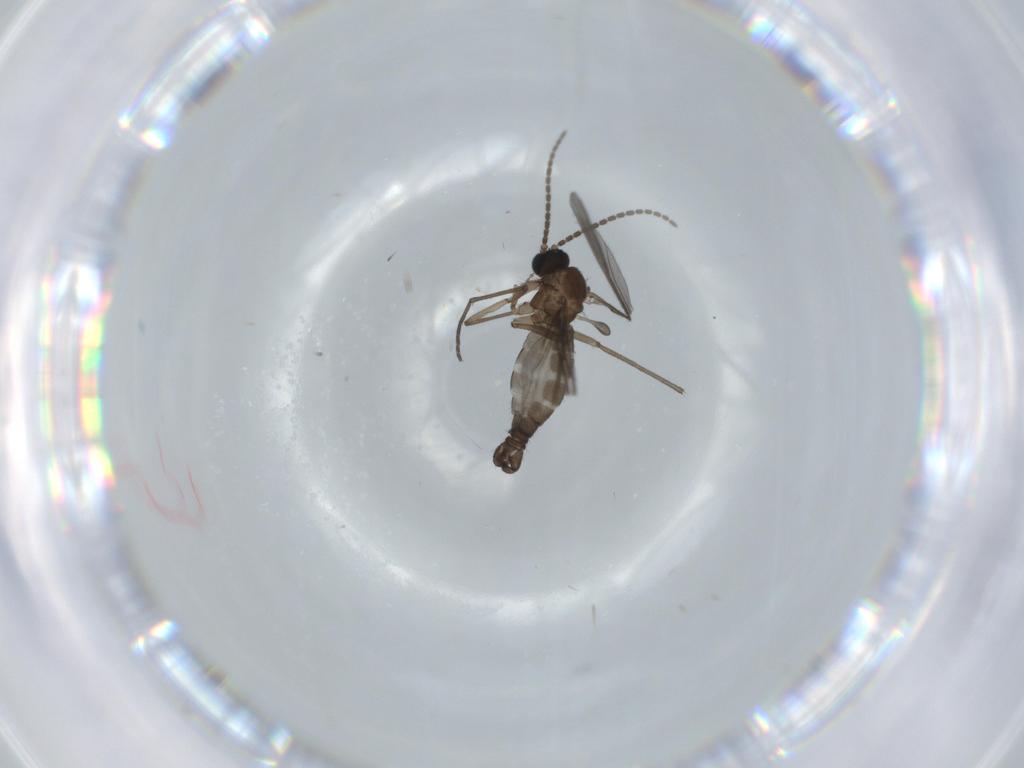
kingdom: Animalia
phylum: Arthropoda
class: Insecta
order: Diptera
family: Sciaridae
